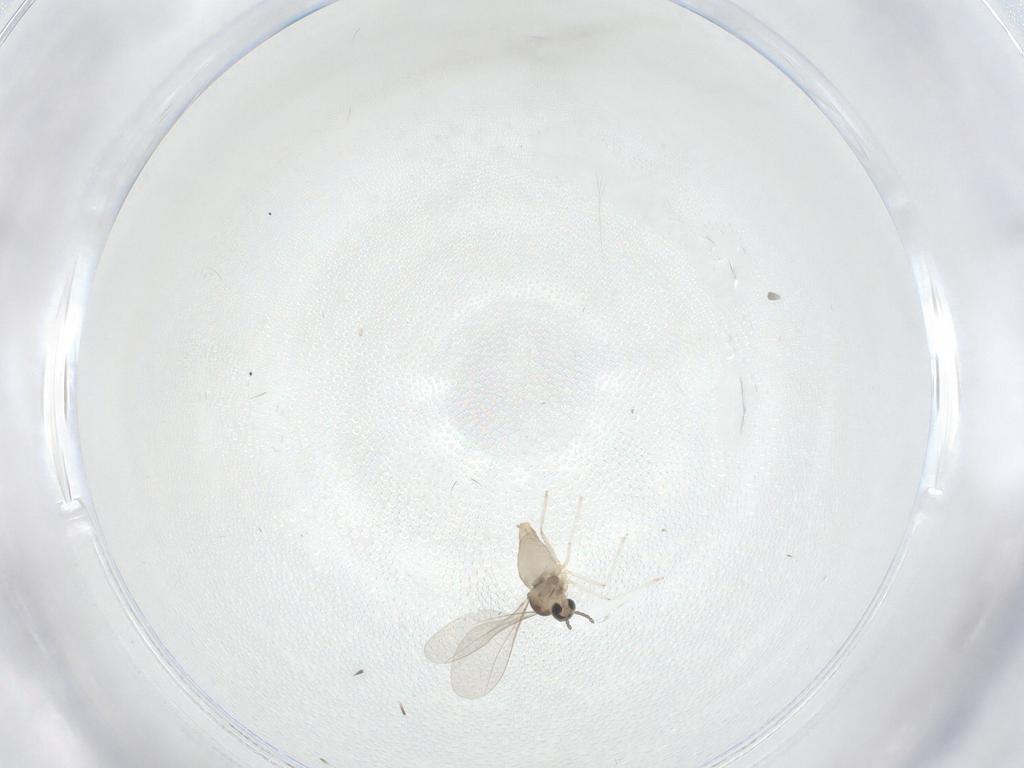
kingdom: Animalia
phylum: Arthropoda
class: Insecta
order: Diptera
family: Cecidomyiidae
